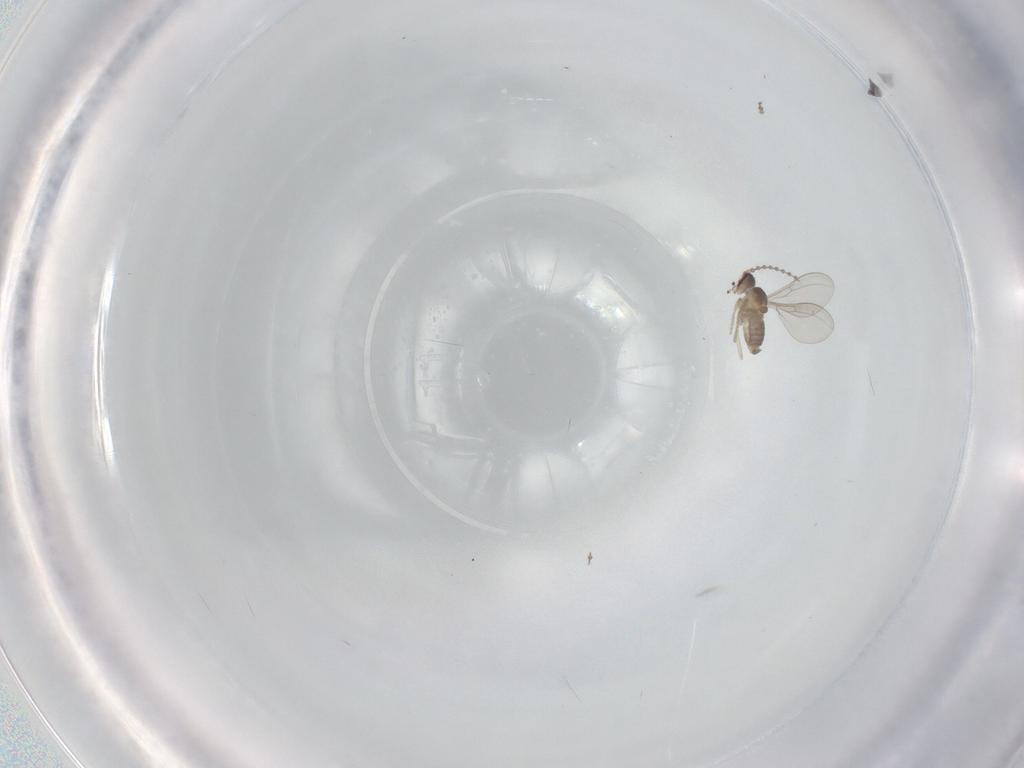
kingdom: Animalia
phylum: Arthropoda
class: Insecta
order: Diptera
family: Cecidomyiidae
